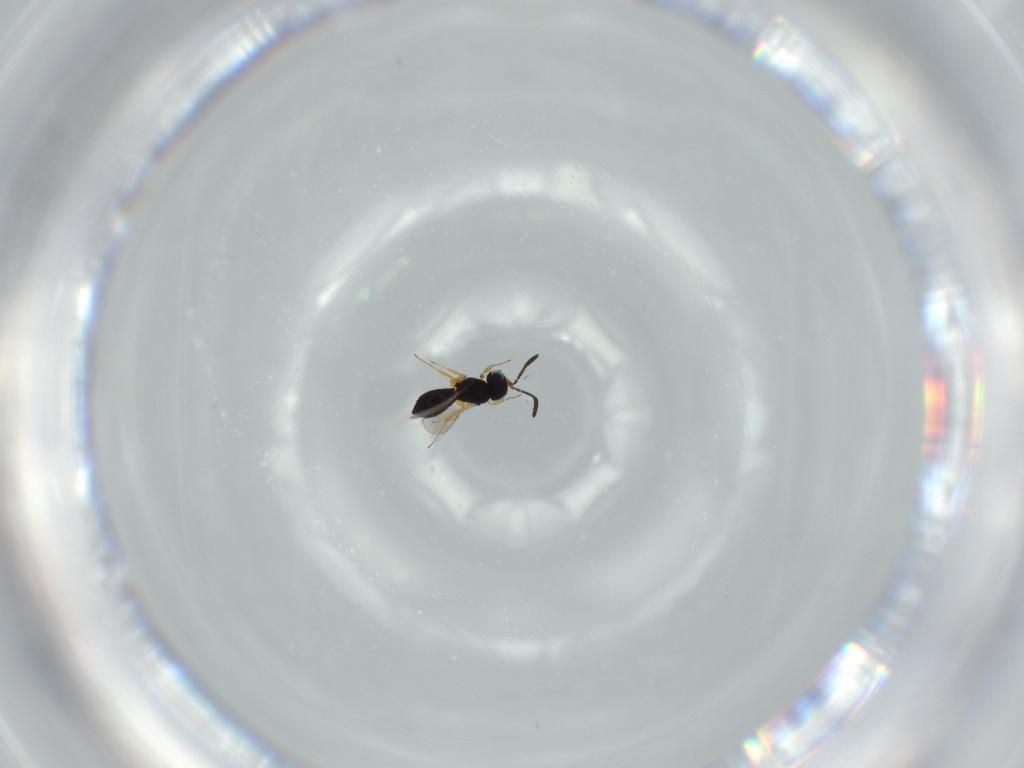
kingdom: Animalia
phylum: Arthropoda
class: Insecta
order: Hymenoptera
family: Scelionidae
